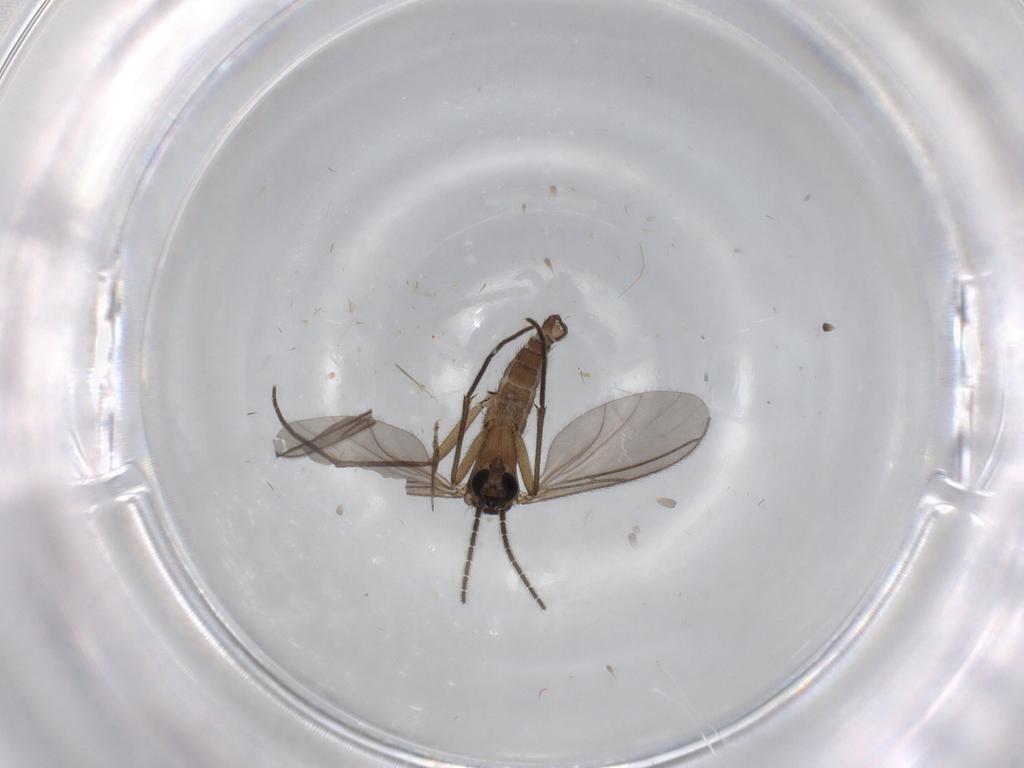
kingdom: Animalia
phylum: Arthropoda
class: Insecta
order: Diptera
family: Sciaridae
